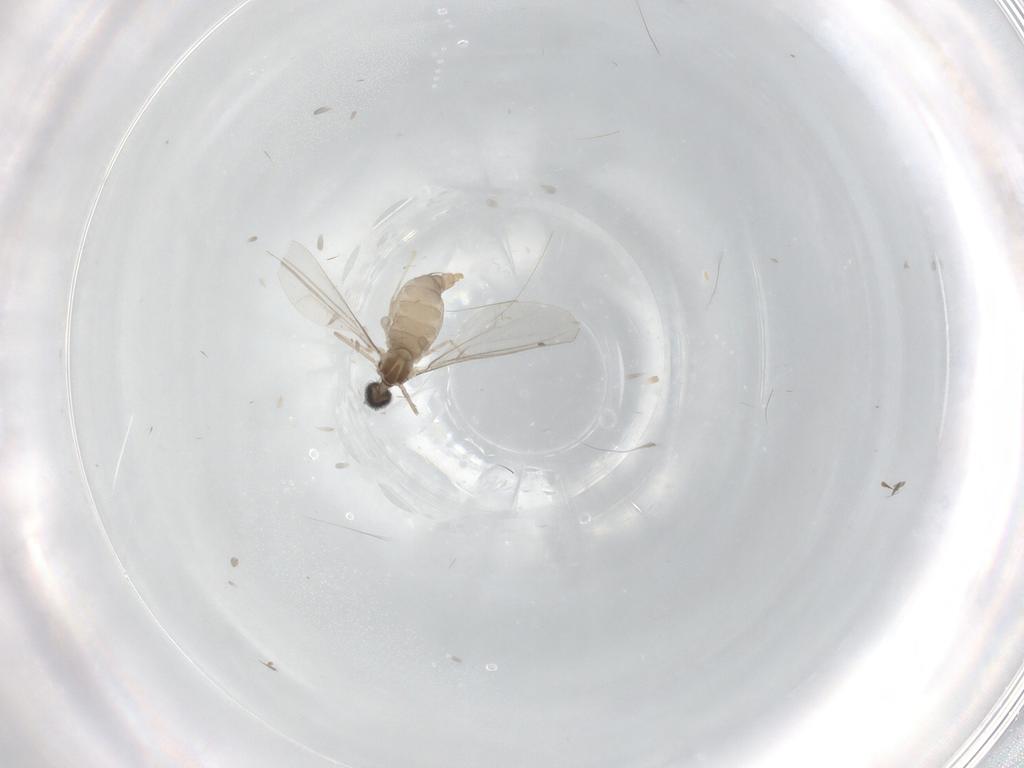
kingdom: Animalia
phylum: Arthropoda
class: Insecta
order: Diptera
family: Cecidomyiidae
